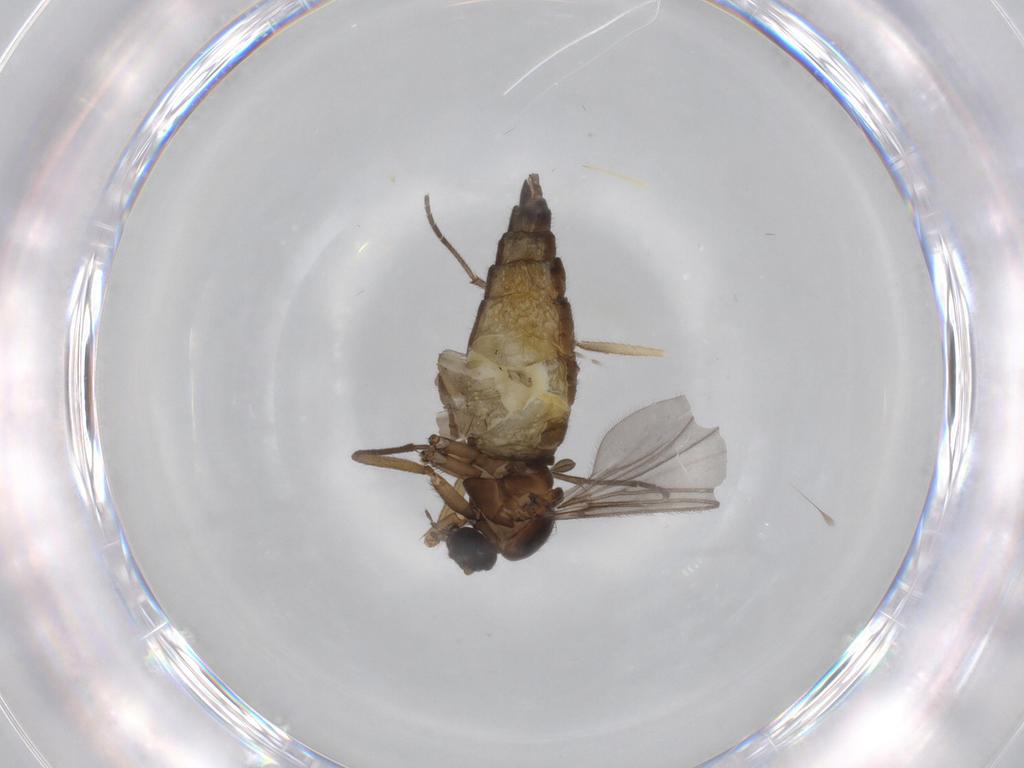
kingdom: Animalia
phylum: Arthropoda
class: Insecta
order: Diptera
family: Sciaridae
